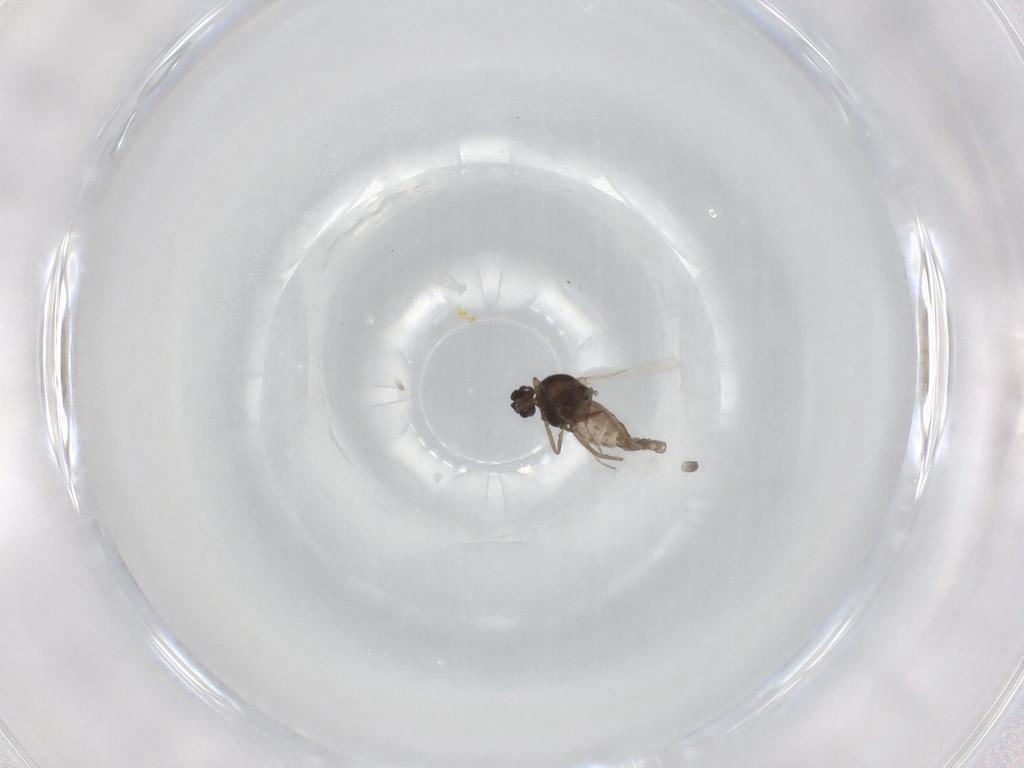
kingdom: Animalia
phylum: Arthropoda
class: Insecta
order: Diptera
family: Ceratopogonidae
